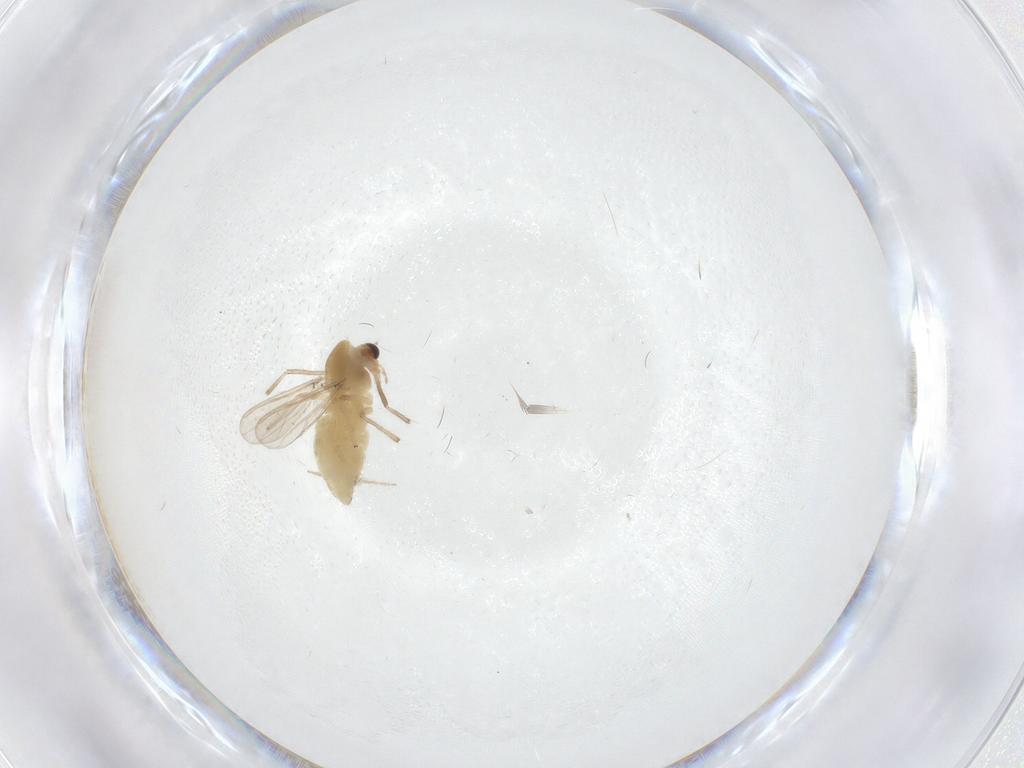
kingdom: Animalia
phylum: Arthropoda
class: Insecta
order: Diptera
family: Chironomidae
